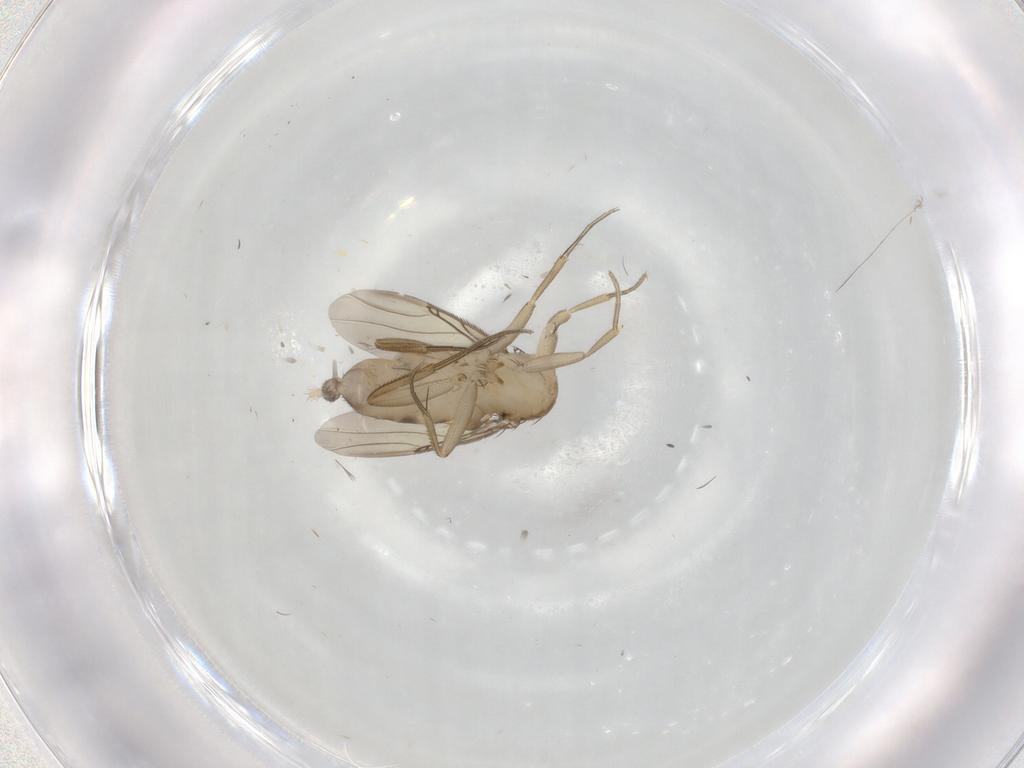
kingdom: Animalia
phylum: Arthropoda
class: Insecta
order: Diptera
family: Phoridae
